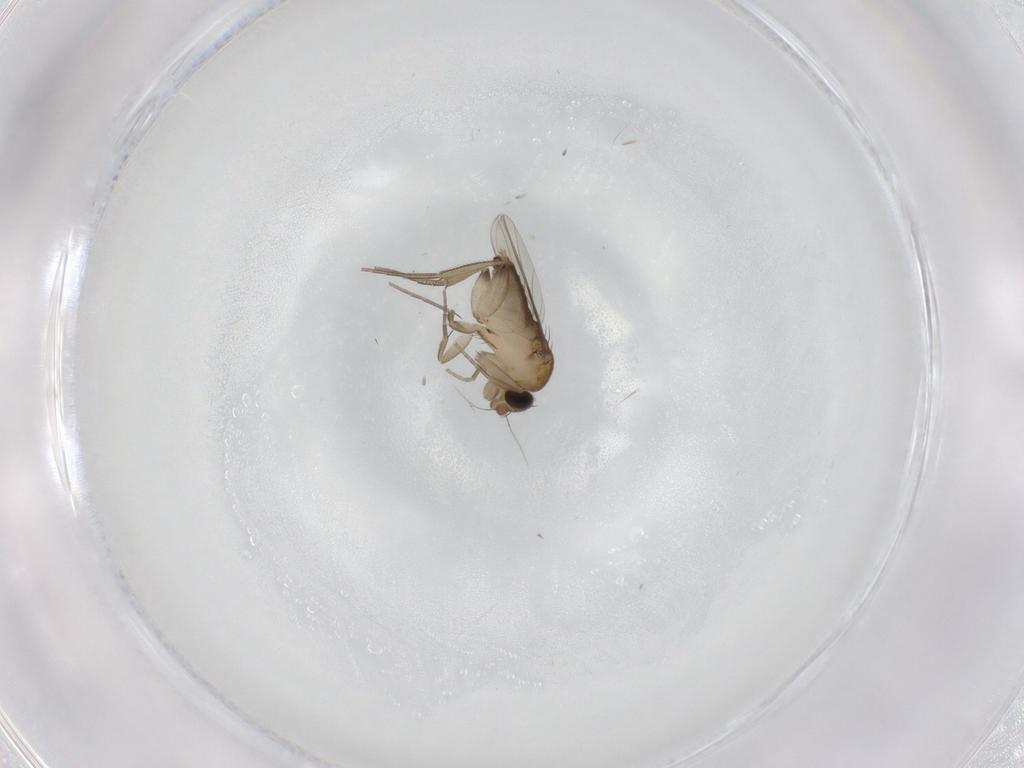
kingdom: Animalia
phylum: Arthropoda
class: Insecta
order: Diptera
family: Phoridae
